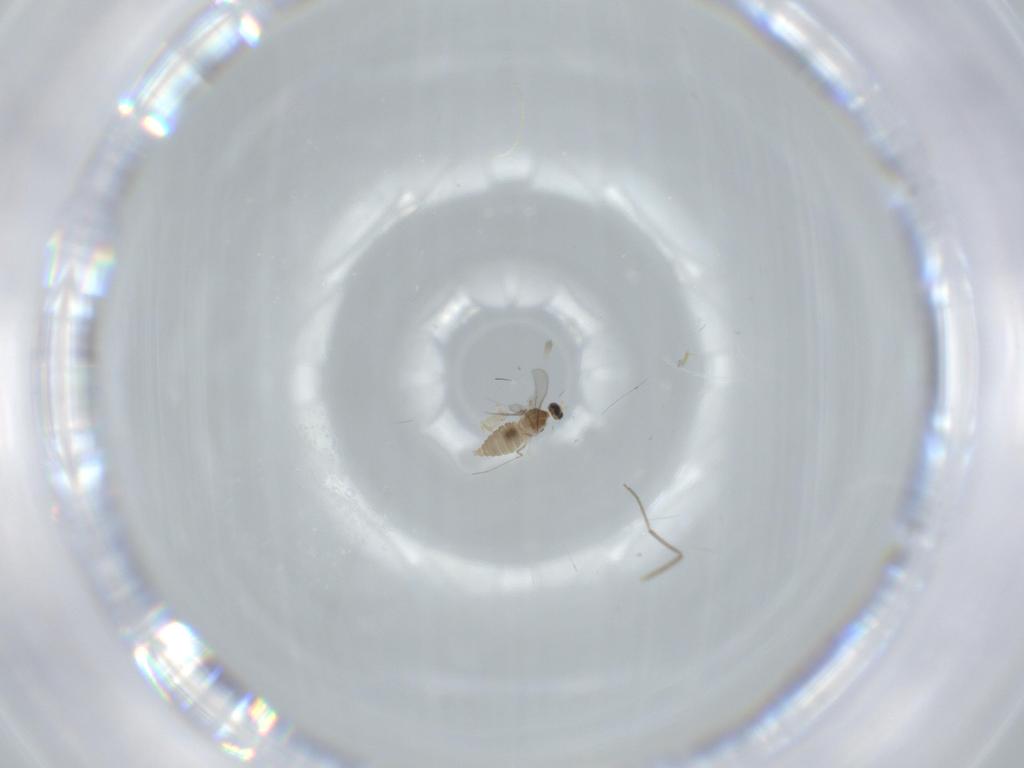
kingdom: Animalia
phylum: Arthropoda
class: Insecta
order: Diptera
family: Cecidomyiidae
